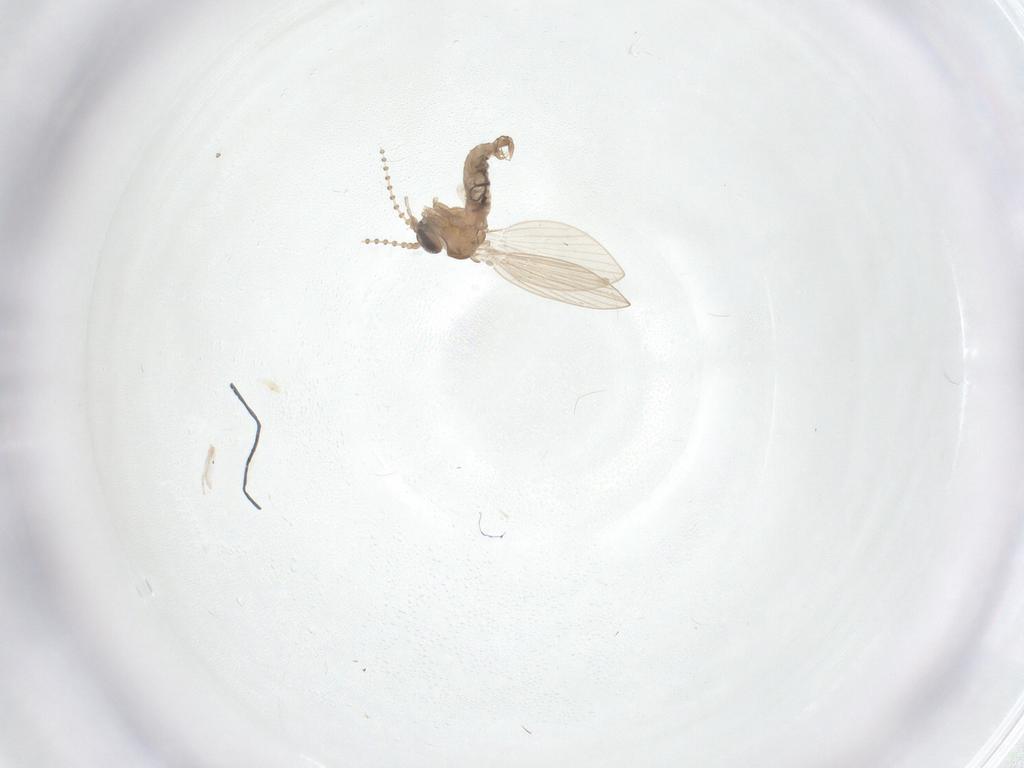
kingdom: Animalia
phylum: Arthropoda
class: Insecta
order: Diptera
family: Psychodidae
